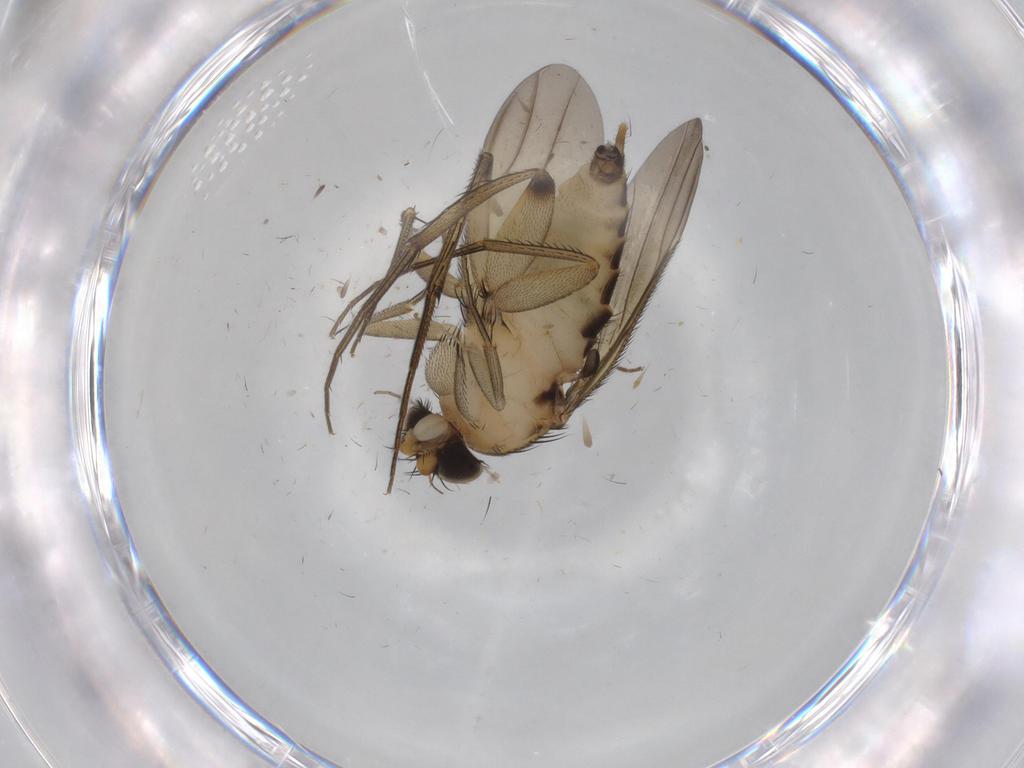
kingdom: Animalia
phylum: Arthropoda
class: Insecta
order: Diptera
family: Cecidomyiidae
